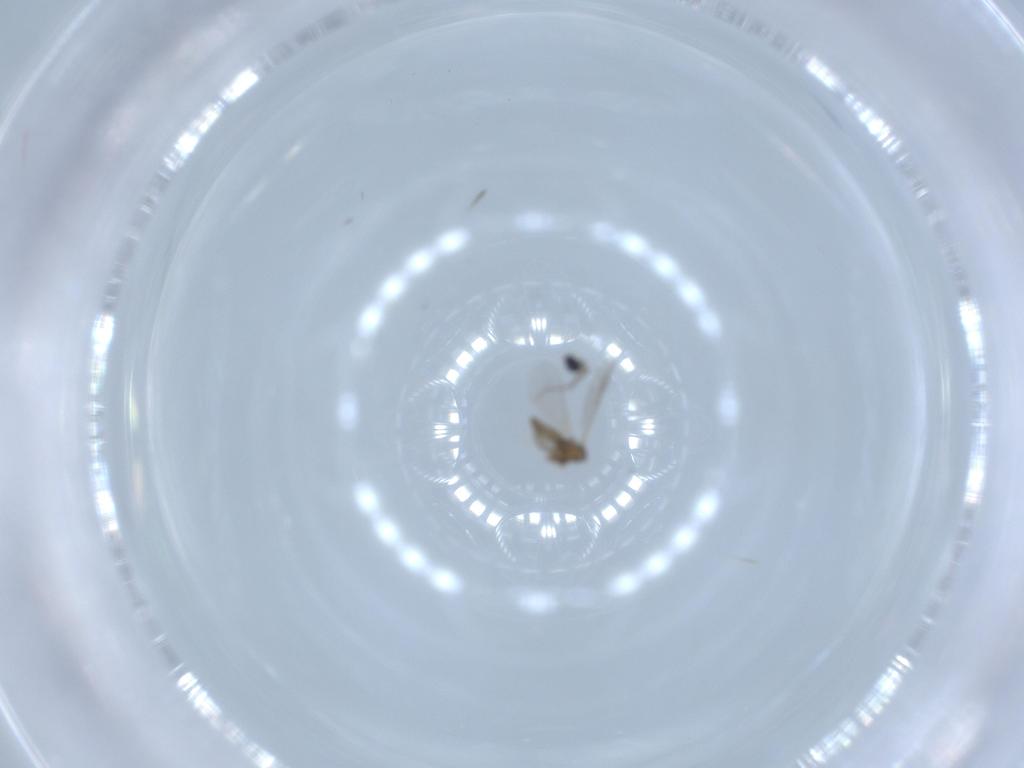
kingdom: Animalia
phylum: Arthropoda
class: Insecta
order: Diptera
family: Cecidomyiidae
